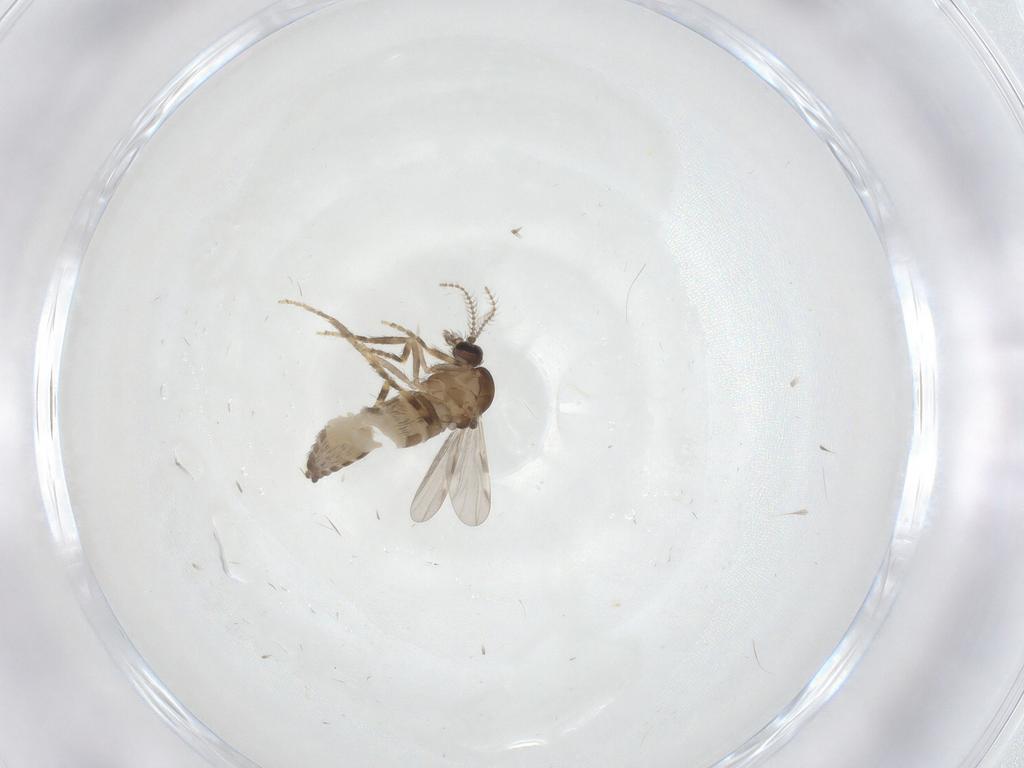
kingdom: Animalia
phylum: Arthropoda
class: Insecta
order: Diptera
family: Ceratopogonidae
